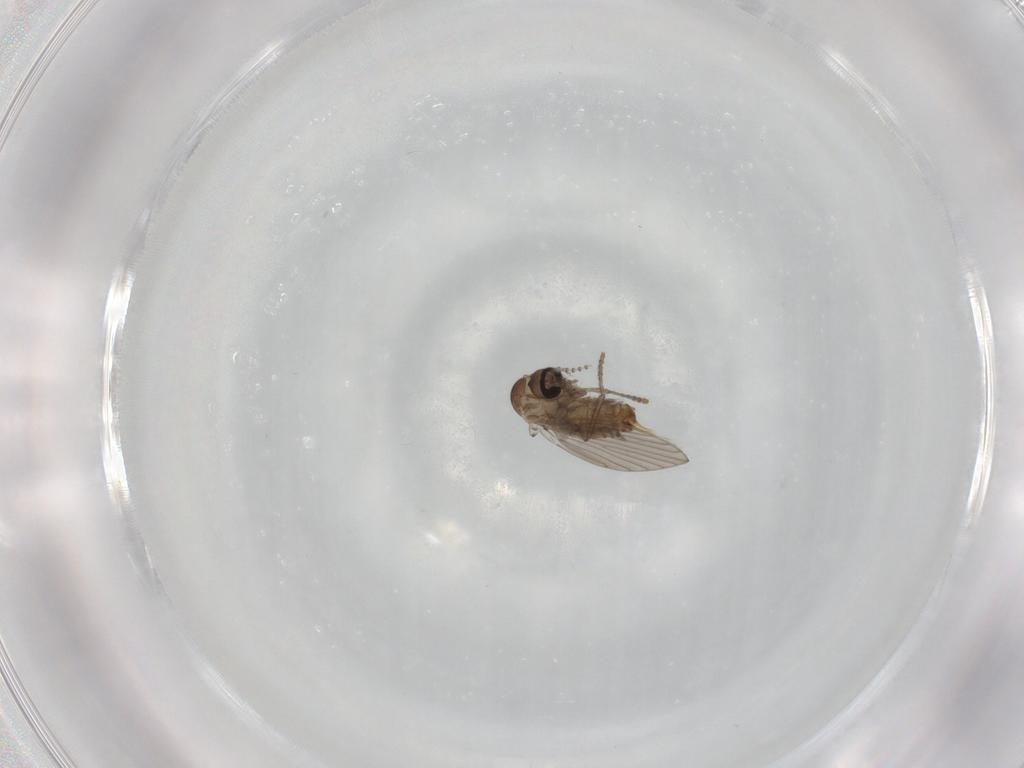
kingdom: Animalia
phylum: Arthropoda
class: Insecta
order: Diptera
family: Psychodidae
